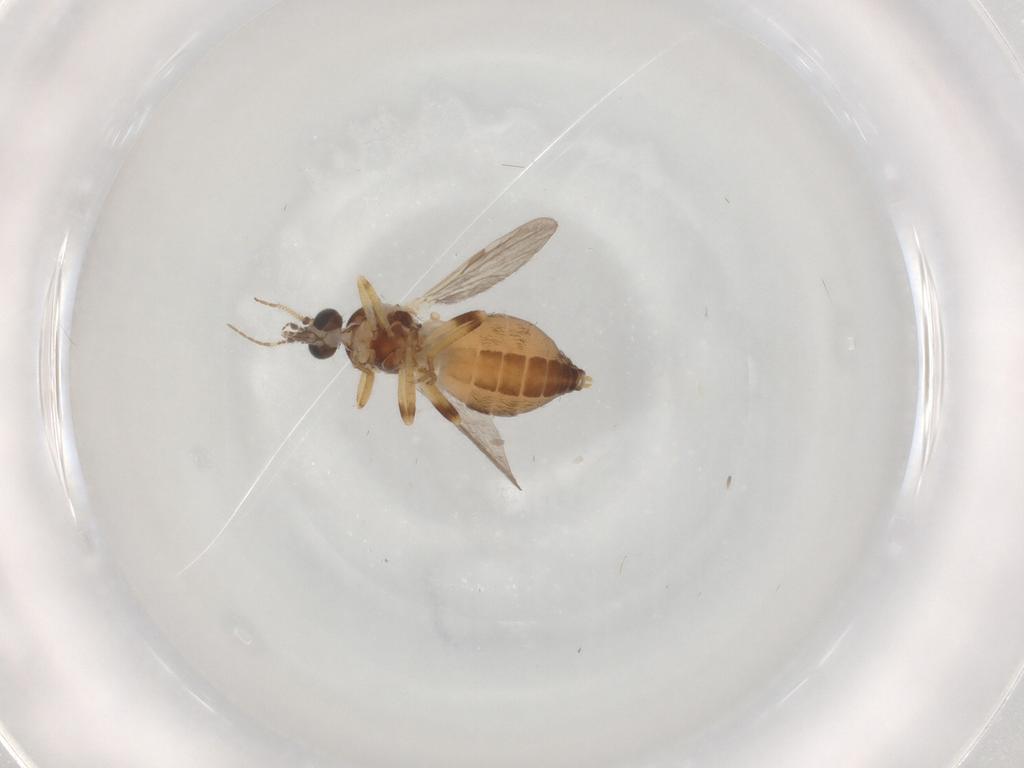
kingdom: Animalia
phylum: Arthropoda
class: Insecta
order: Diptera
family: Ceratopogonidae
